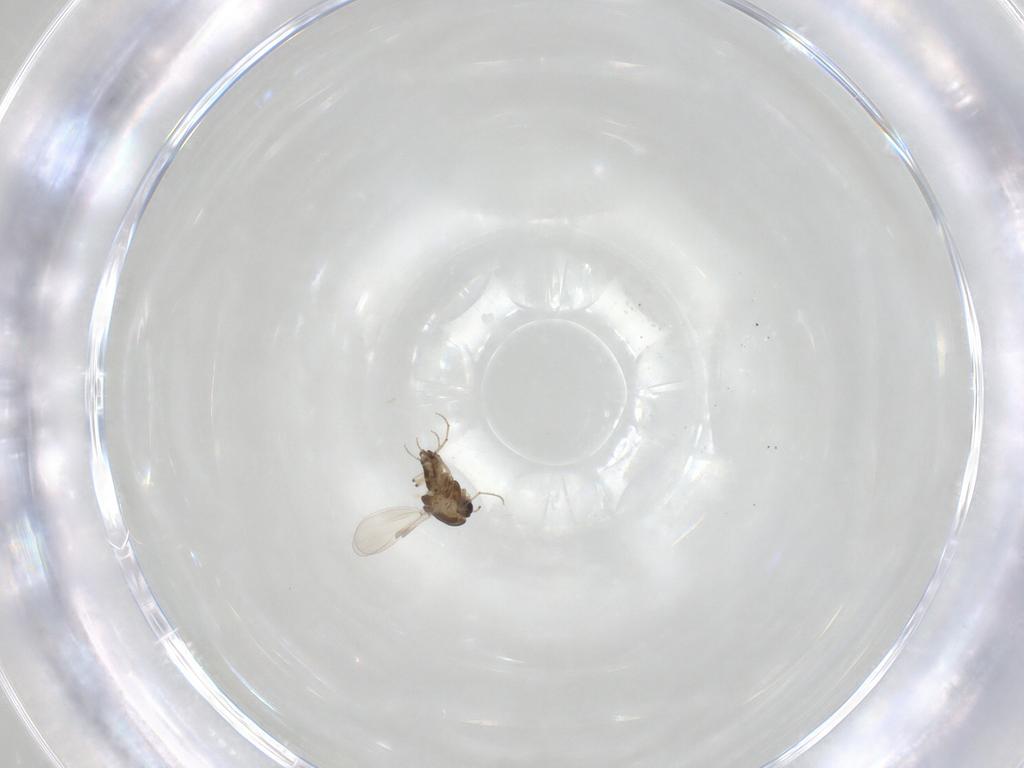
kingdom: Animalia
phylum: Arthropoda
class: Insecta
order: Diptera
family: Chironomidae
